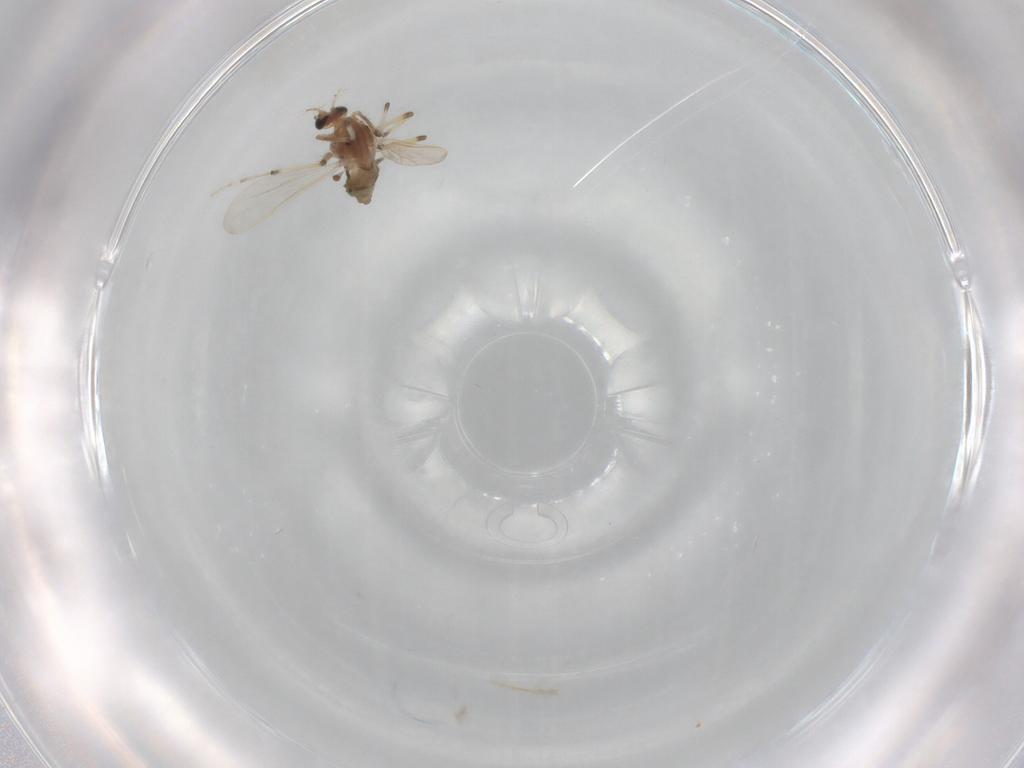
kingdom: Animalia
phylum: Arthropoda
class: Insecta
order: Diptera
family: Chironomidae
